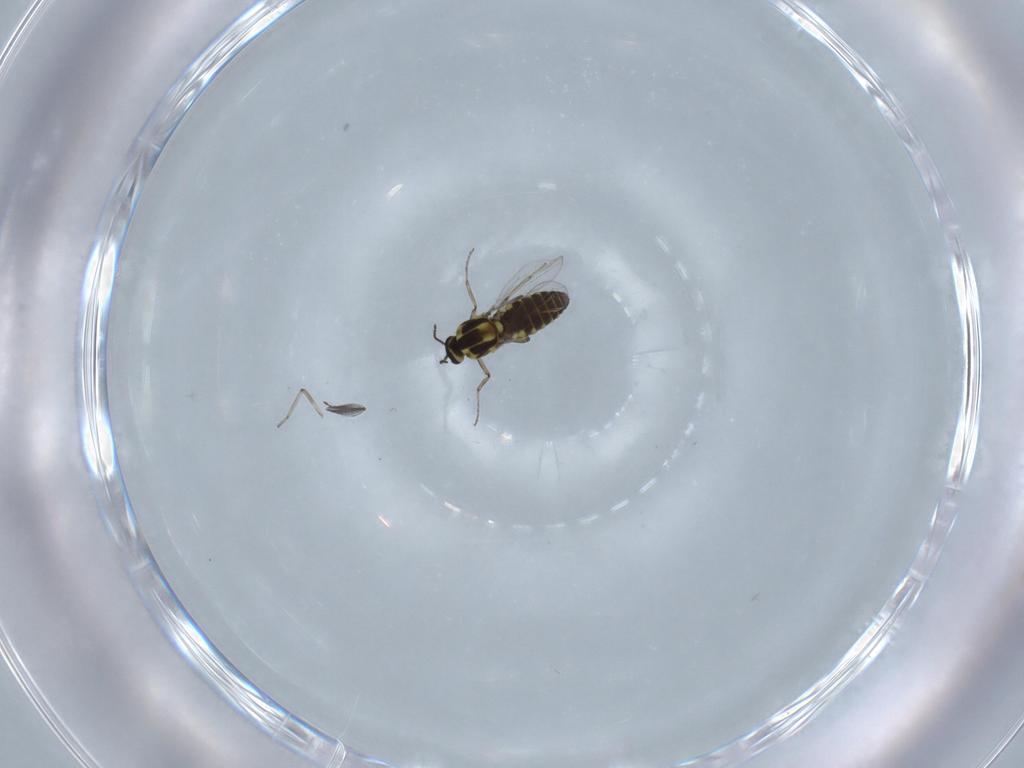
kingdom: Animalia
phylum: Arthropoda
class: Insecta
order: Diptera
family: Ceratopogonidae
